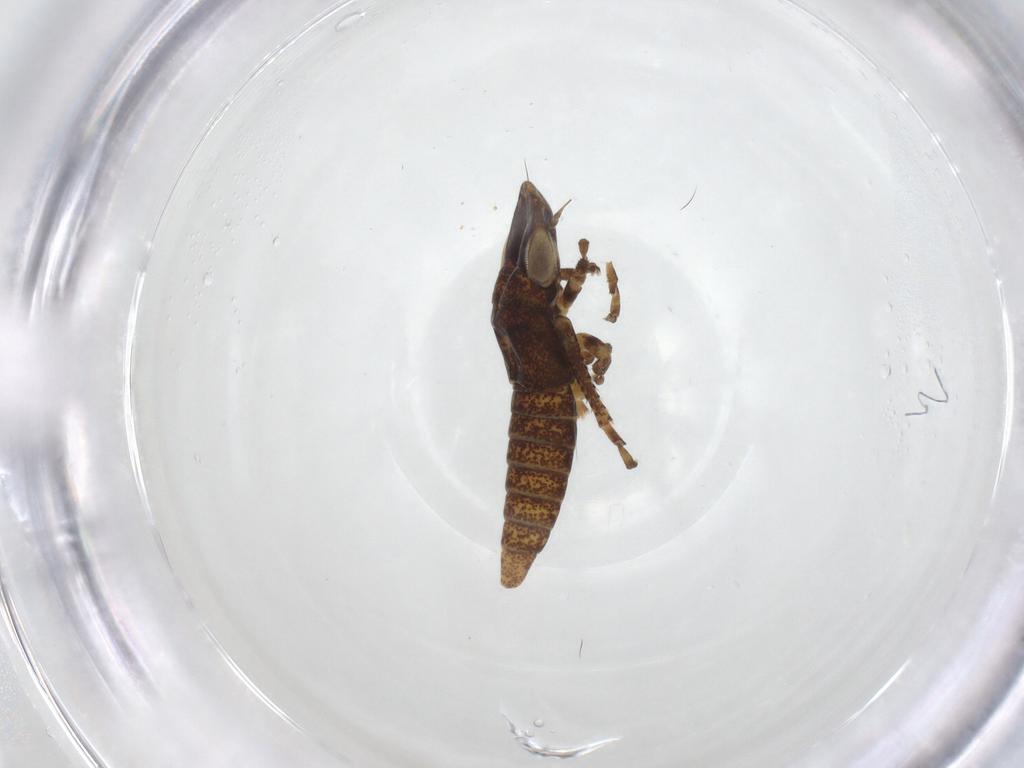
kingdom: Animalia
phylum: Arthropoda
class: Insecta
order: Hemiptera
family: Cicadellidae
